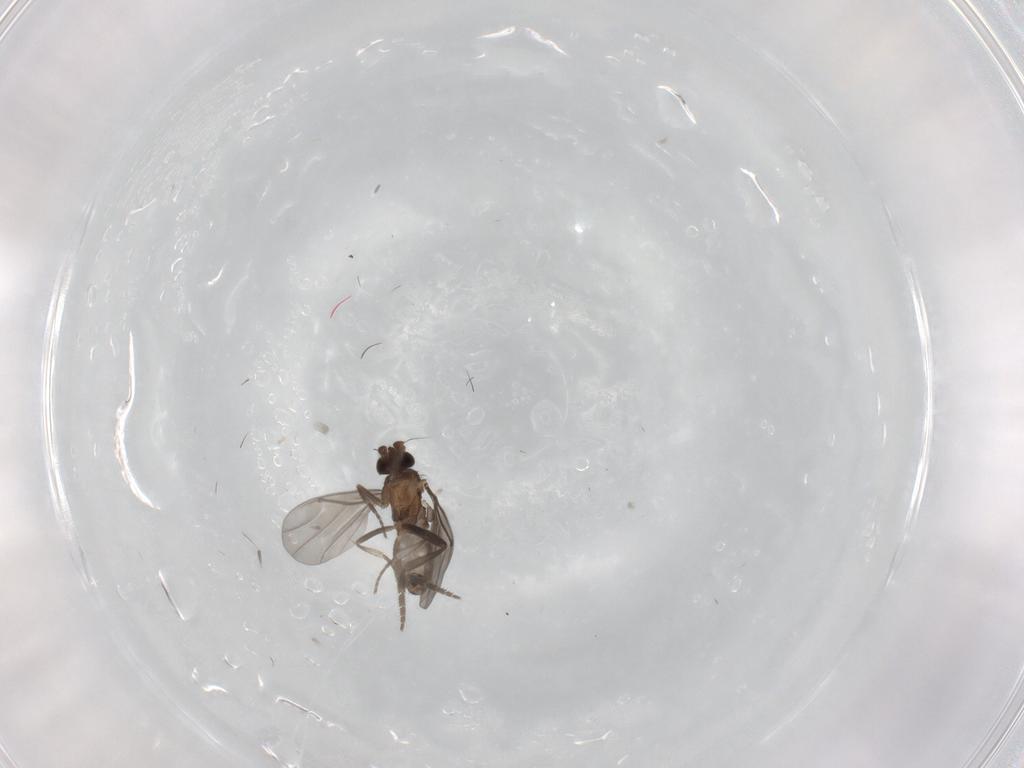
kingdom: Animalia
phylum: Arthropoda
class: Insecta
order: Diptera
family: Phoridae
